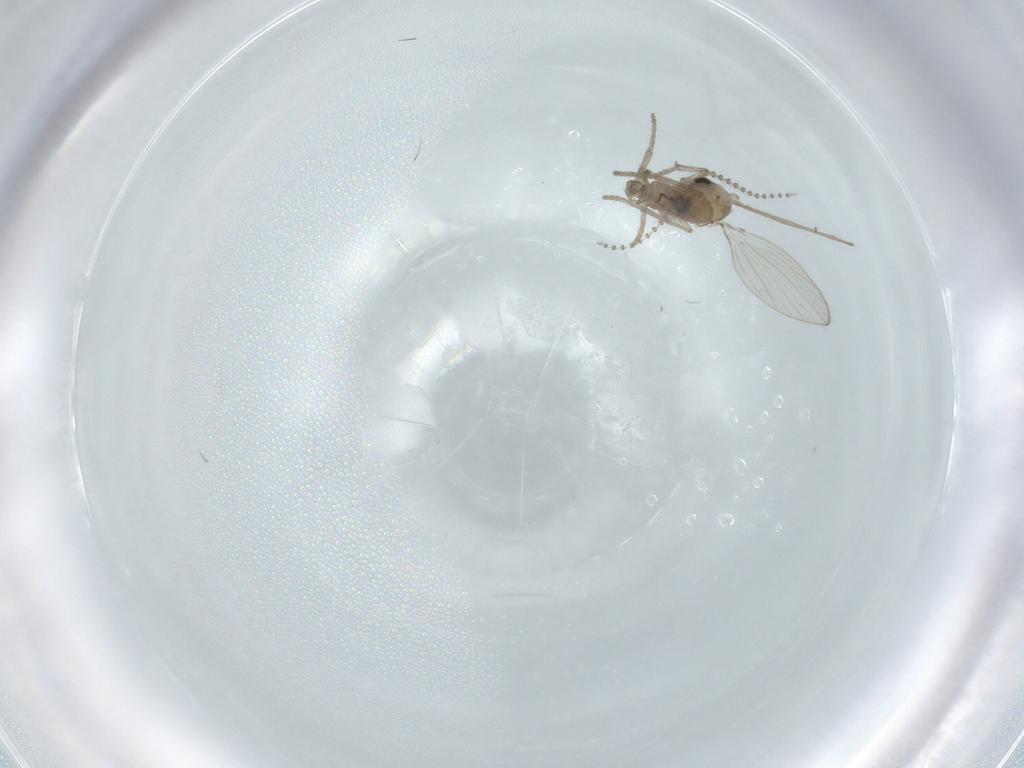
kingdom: Animalia
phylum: Arthropoda
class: Insecta
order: Diptera
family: Psychodidae
